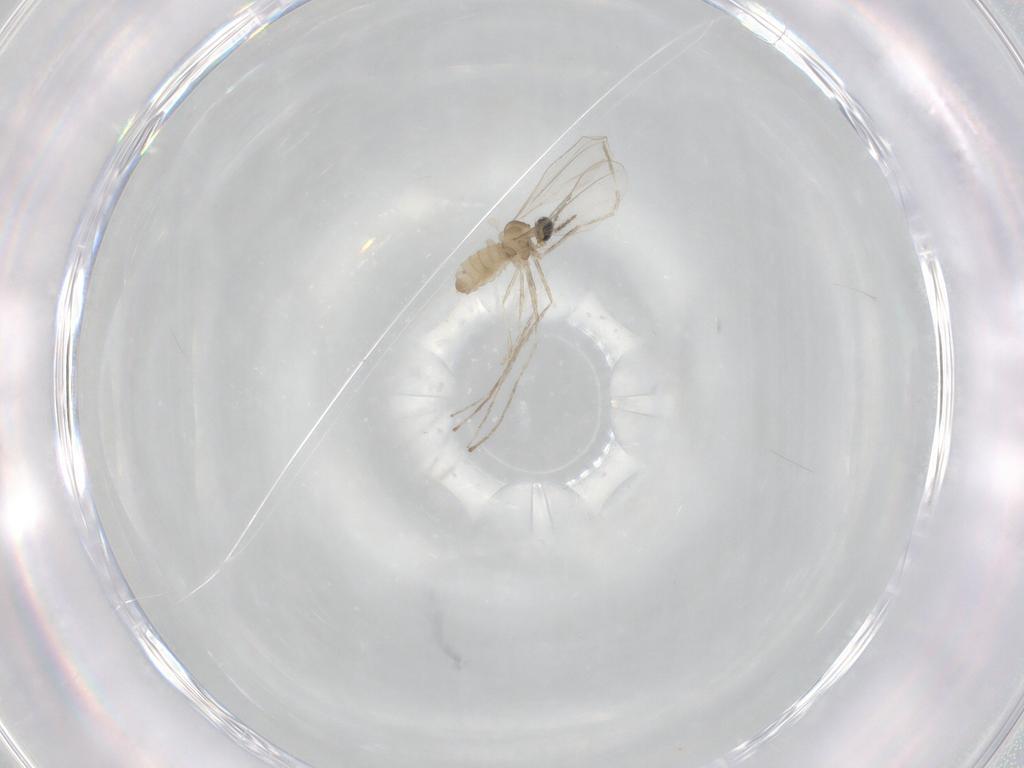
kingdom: Animalia
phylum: Arthropoda
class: Insecta
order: Diptera
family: Cecidomyiidae
